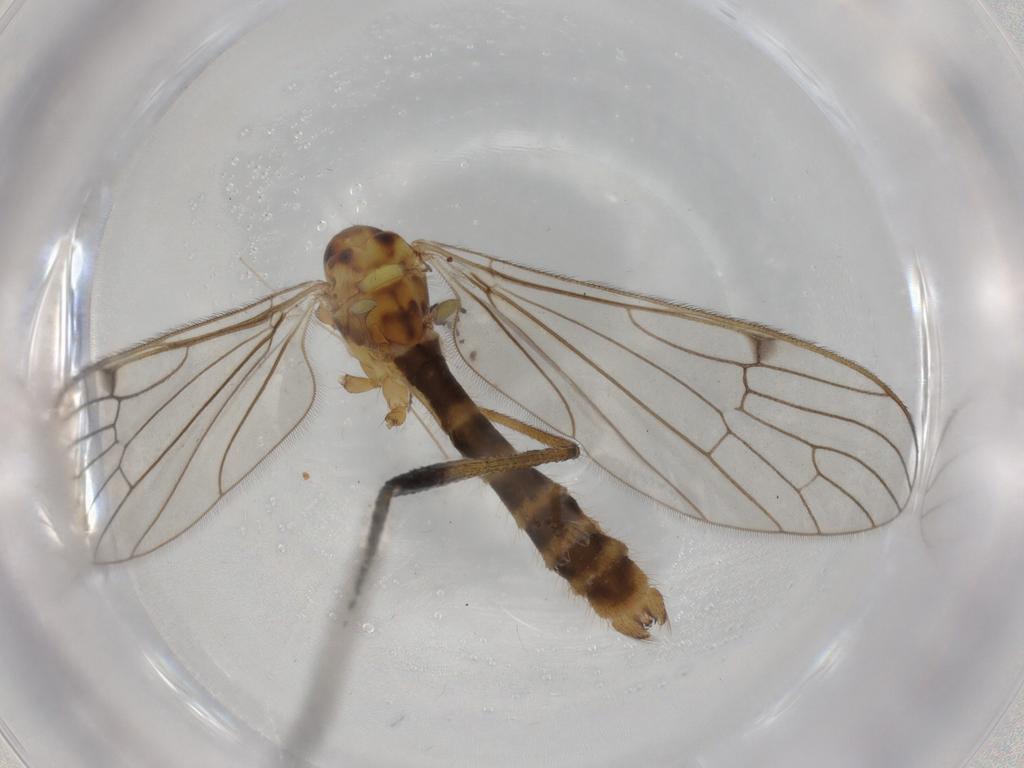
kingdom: Animalia
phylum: Arthropoda
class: Insecta
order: Diptera
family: Limoniidae
